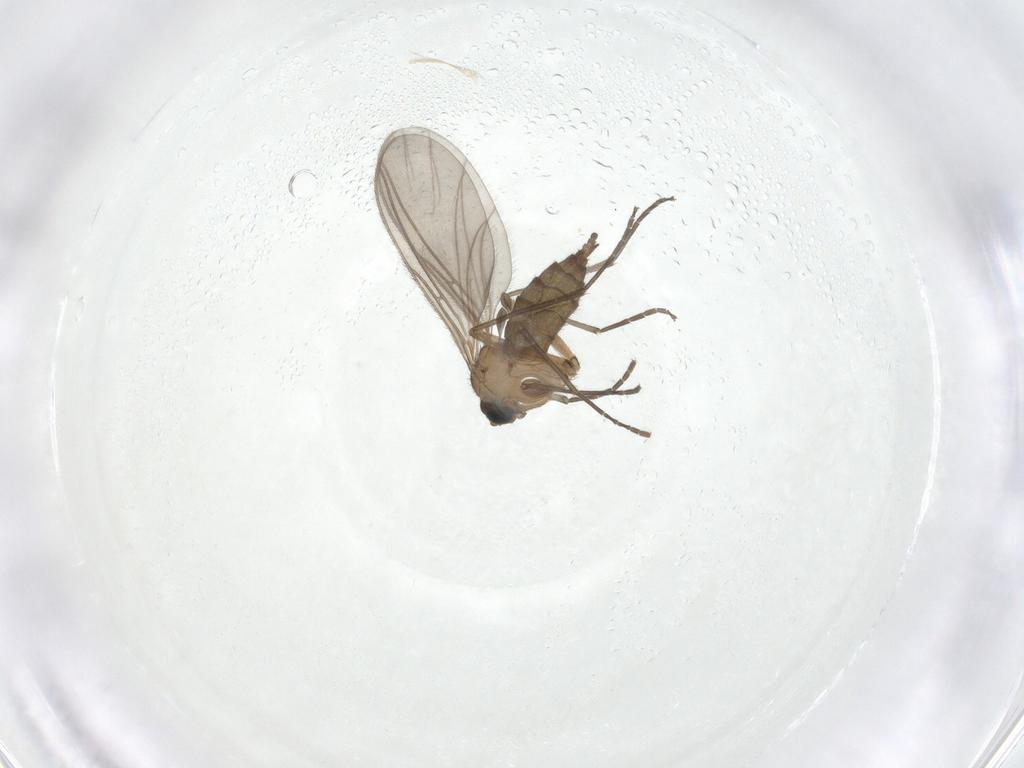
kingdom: Animalia
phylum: Arthropoda
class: Insecta
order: Diptera
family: Sciaridae
